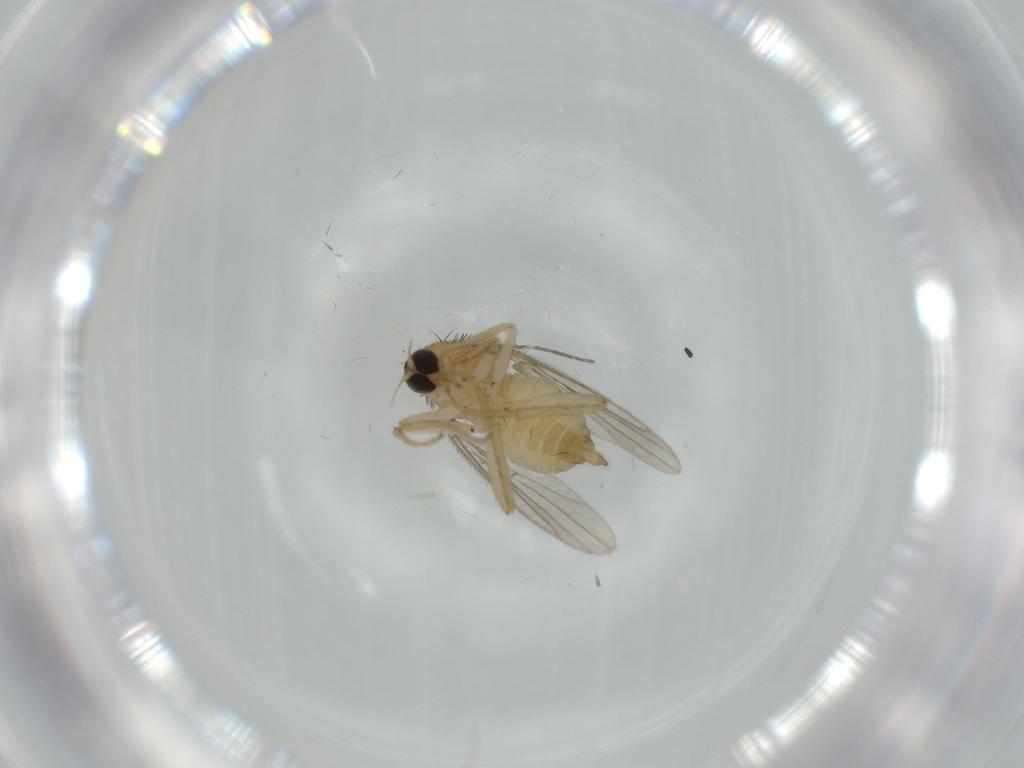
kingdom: Animalia
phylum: Arthropoda
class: Insecta
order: Diptera
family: Hybotidae
